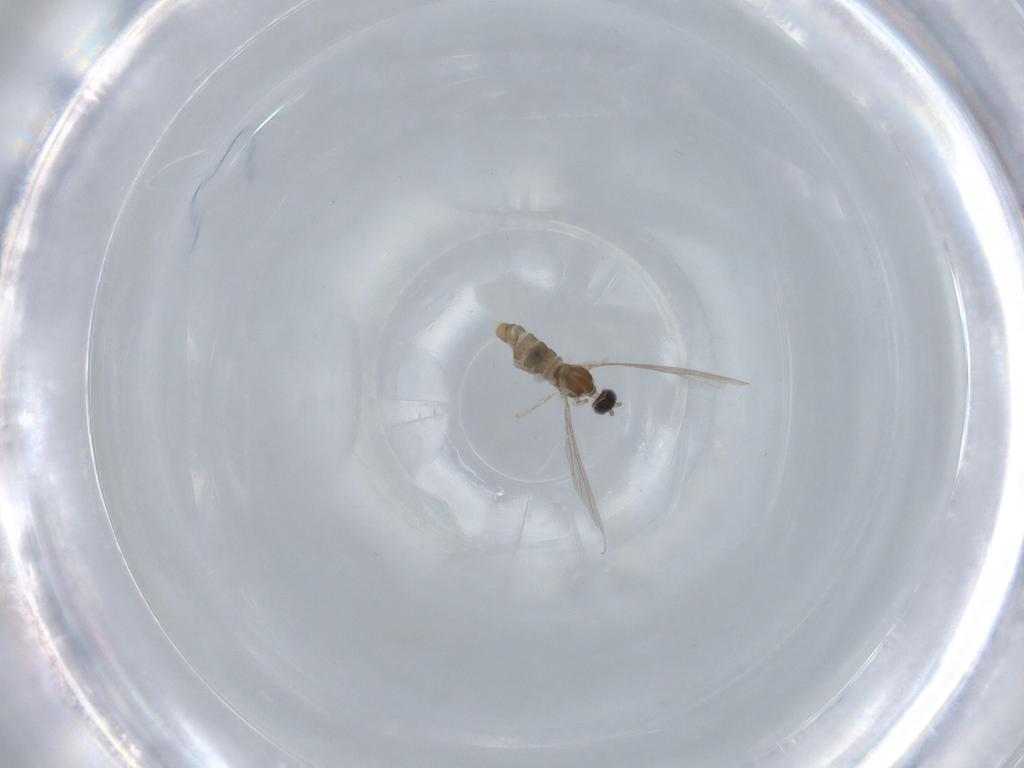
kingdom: Animalia
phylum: Arthropoda
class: Insecta
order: Diptera
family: Cecidomyiidae
